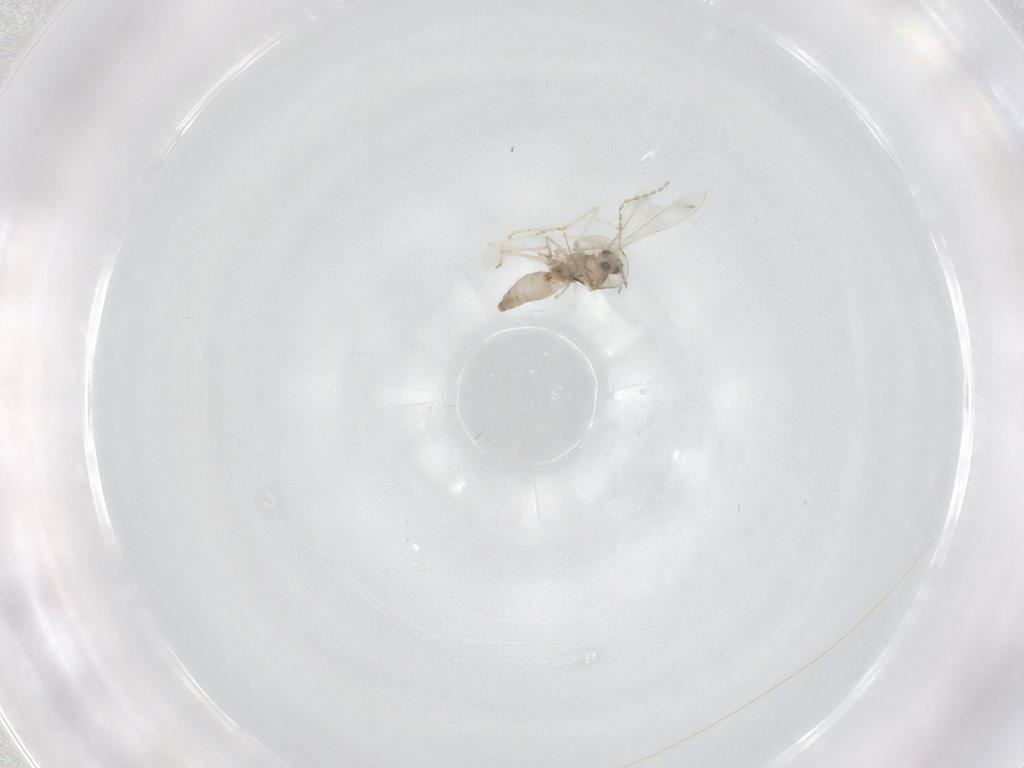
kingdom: Animalia
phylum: Arthropoda
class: Insecta
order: Diptera
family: Cecidomyiidae
